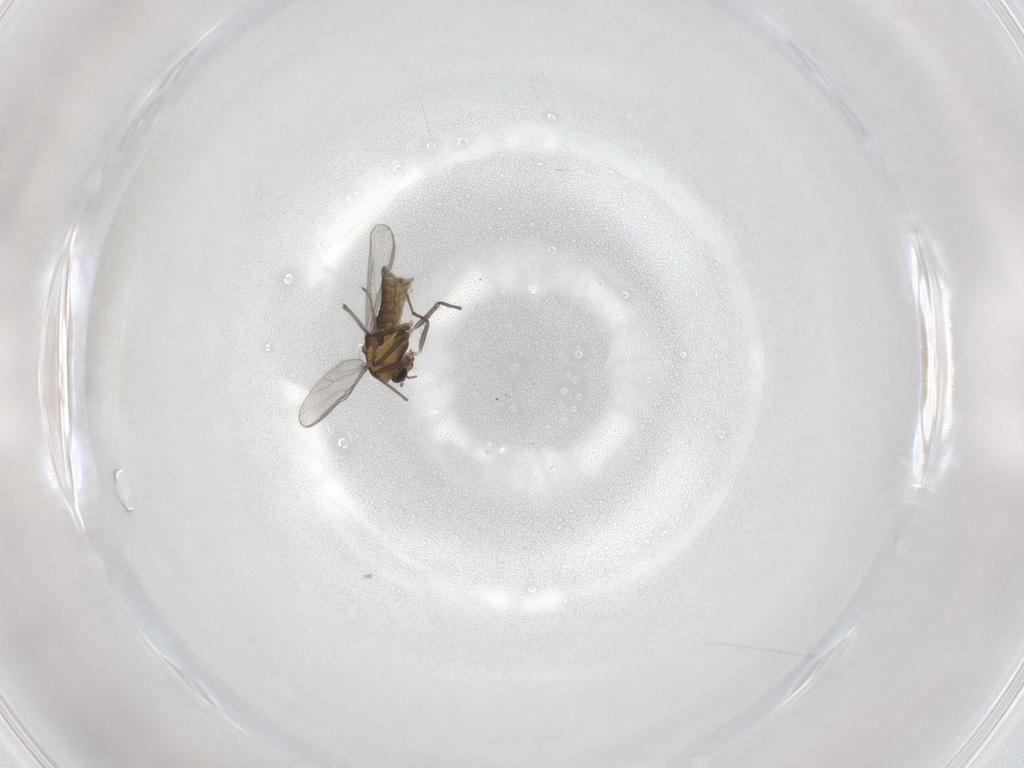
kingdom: Animalia
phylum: Arthropoda
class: Insecta
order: Diptera
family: Chironomidae
